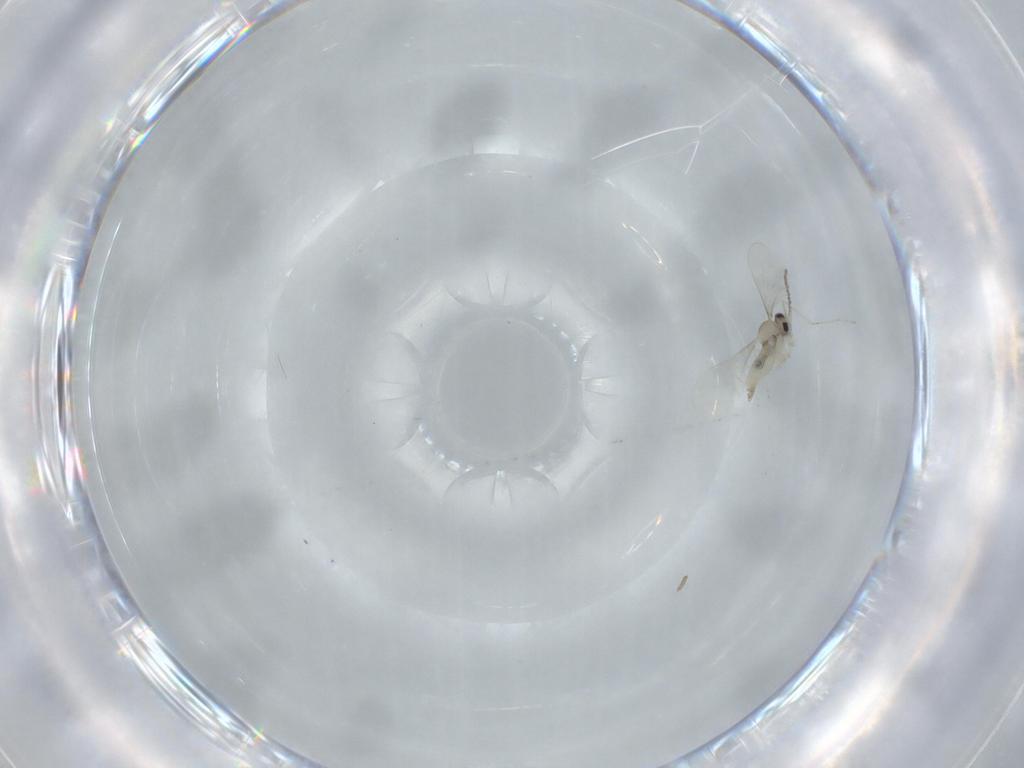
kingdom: Animalia
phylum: Arthropoda
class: Insecta
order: Diptera
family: Cecidomyiidae
